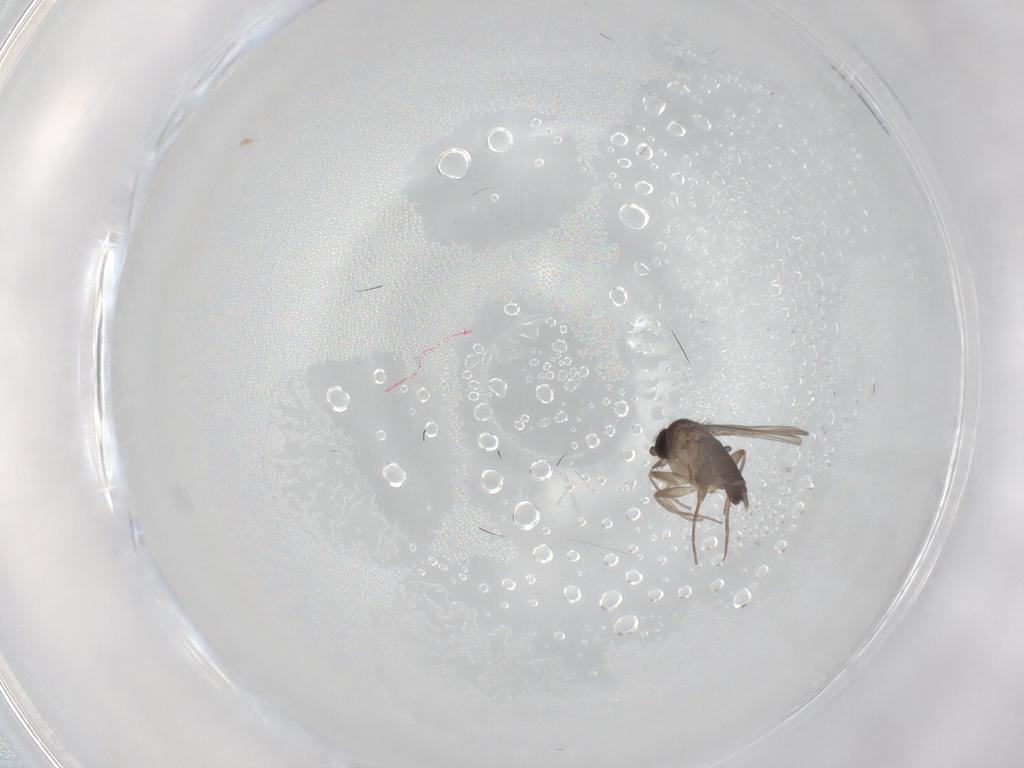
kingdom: Animalia
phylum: Arthropoda
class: Insecta
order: Diptera
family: Phoridae
